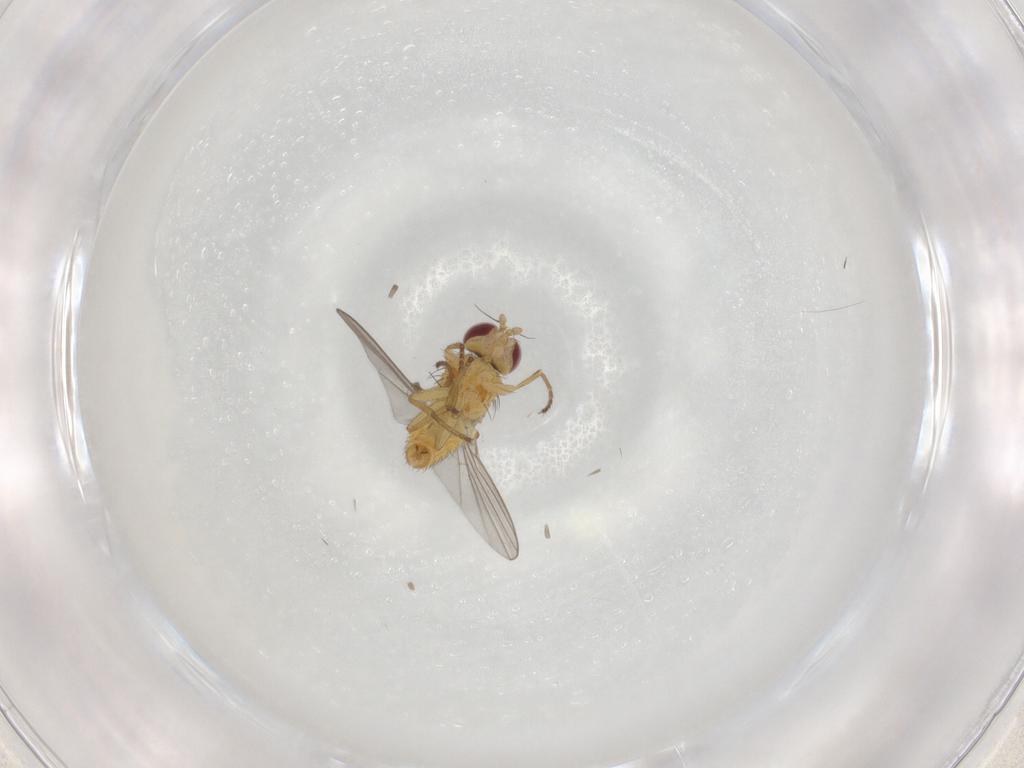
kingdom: Animalia
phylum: Arthropoda
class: Insecta
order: Diptera
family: Agromyzidae
